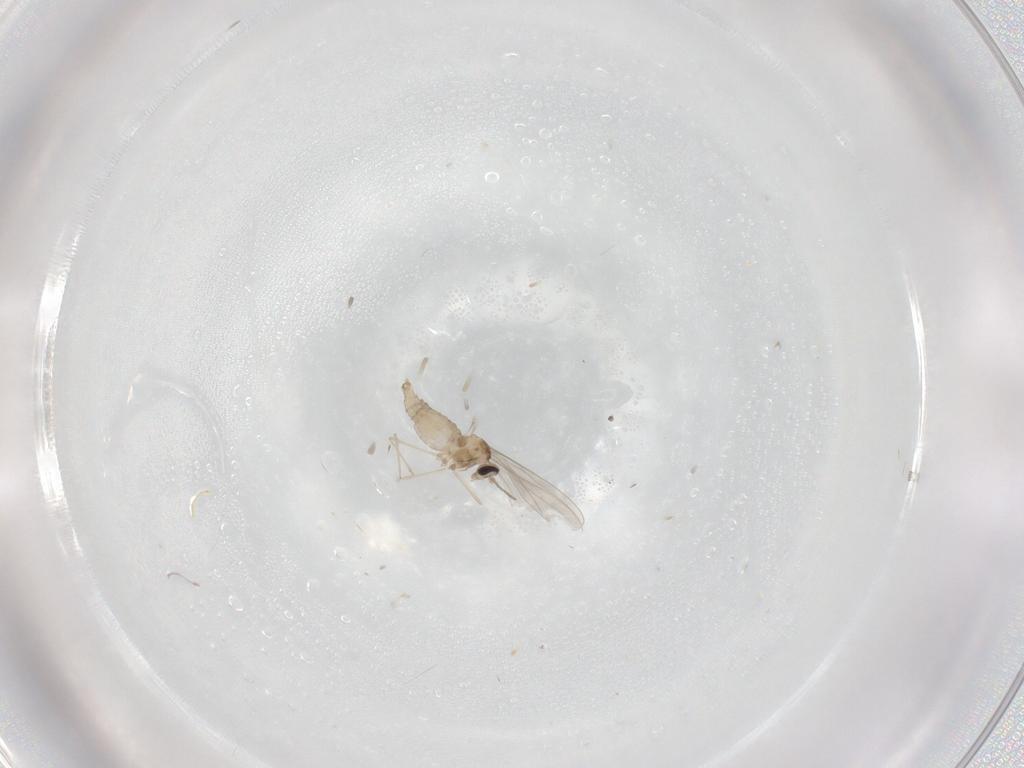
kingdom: Animalia
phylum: Arthropoda
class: Insecta
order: Diptera
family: Cecidomyiidae
